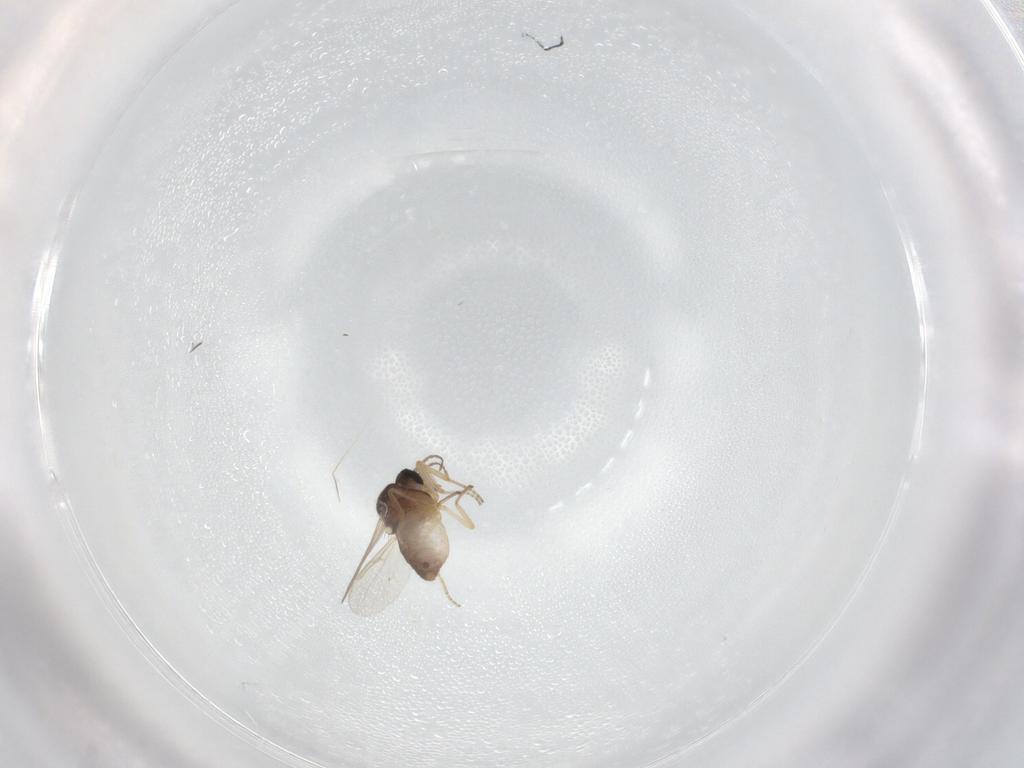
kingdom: Animalia
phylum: Arthropoda
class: Insecta
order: Diptera
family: Ceratopogonidae
